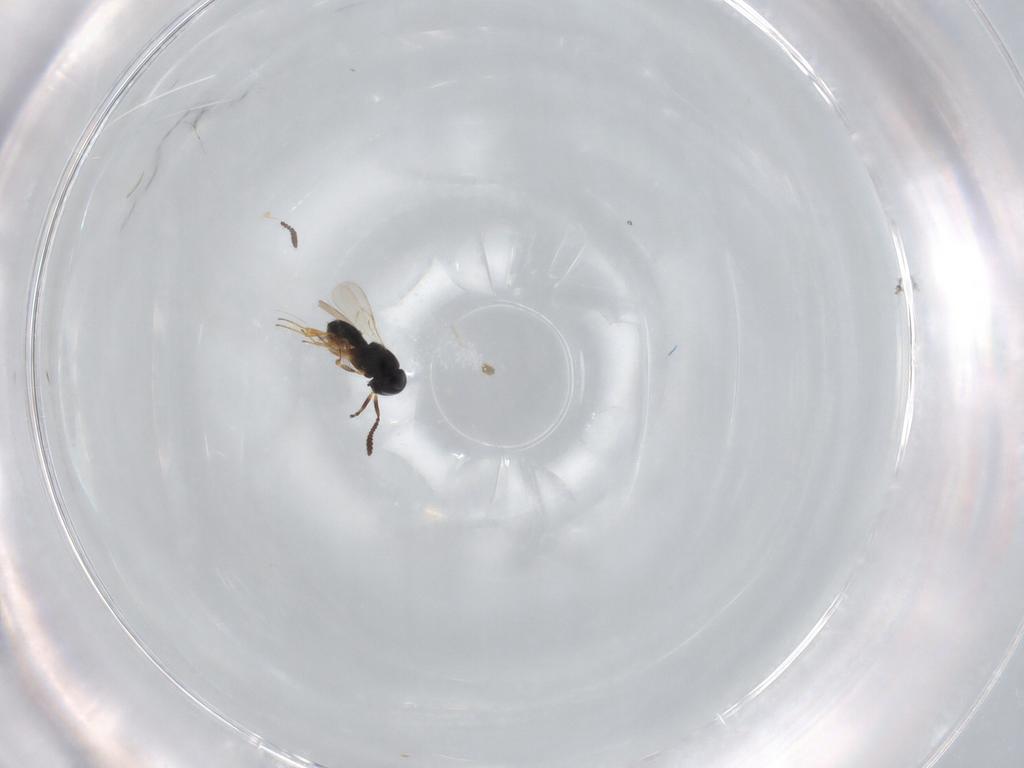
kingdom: Animalia
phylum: Arthropoda
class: Insecta
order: Hymenoptera
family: Scelionidae
